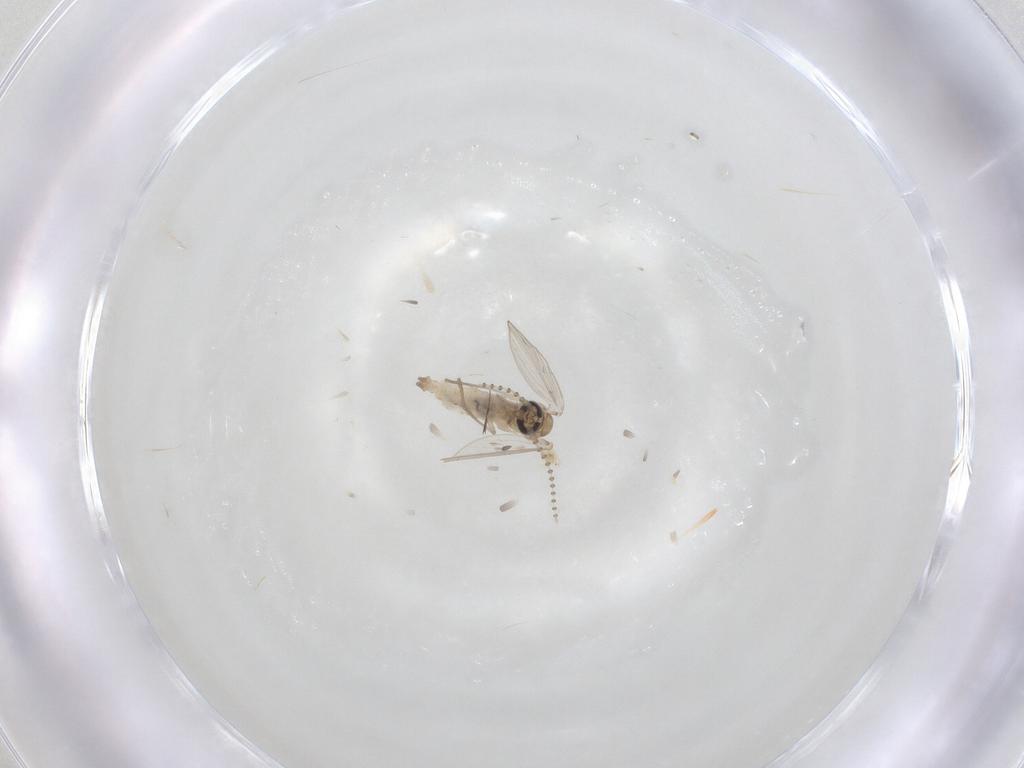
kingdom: Animalia
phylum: Arthropoda
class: Insecta
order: Diptera
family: Psychodidae
